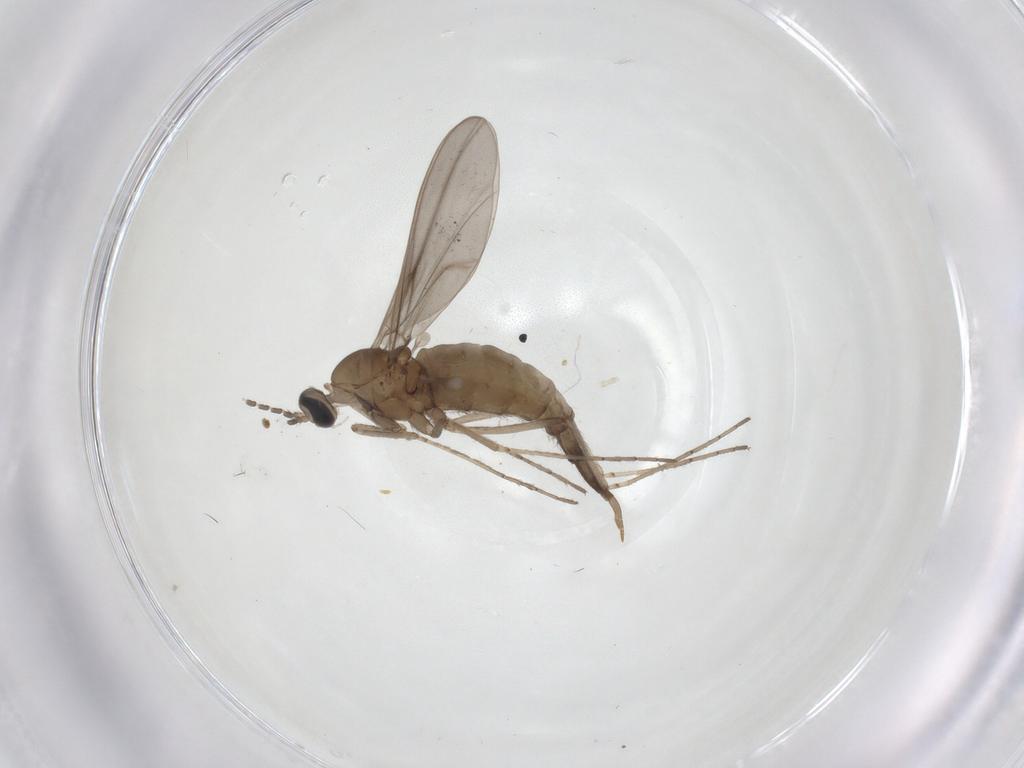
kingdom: Animalia
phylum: Arthropoda
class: Insecta
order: Diptera
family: Cecidomyiidae
